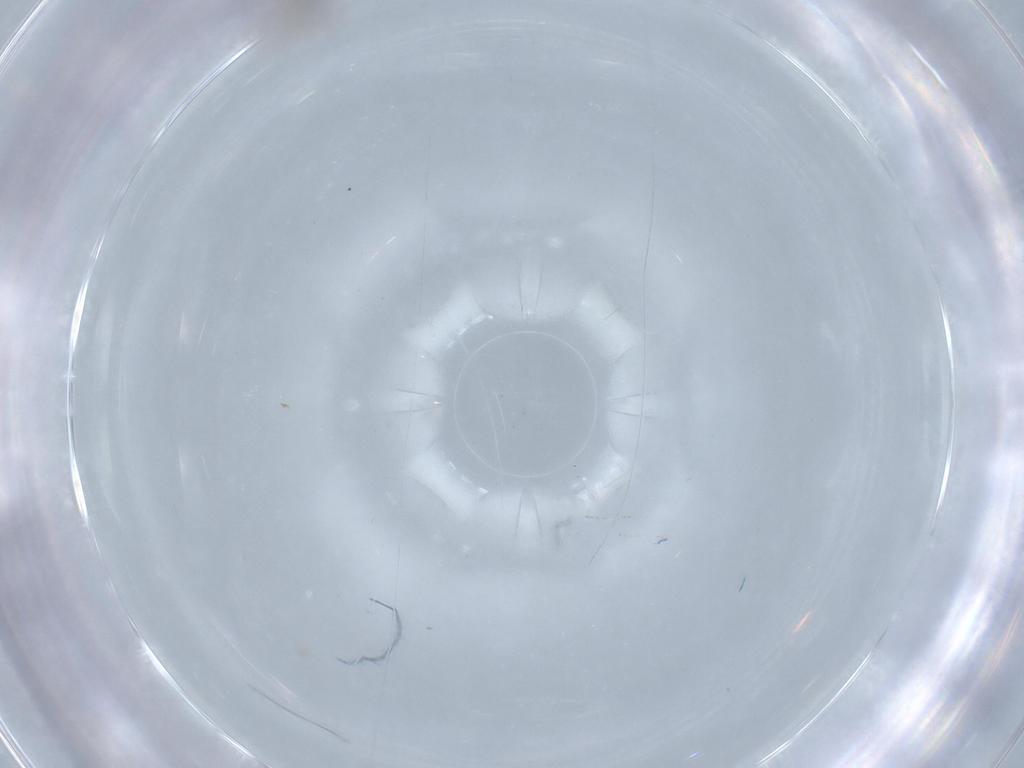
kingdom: Animalia
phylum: Arthropoda
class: Insecta
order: Diptera
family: Cecidomyiidae
